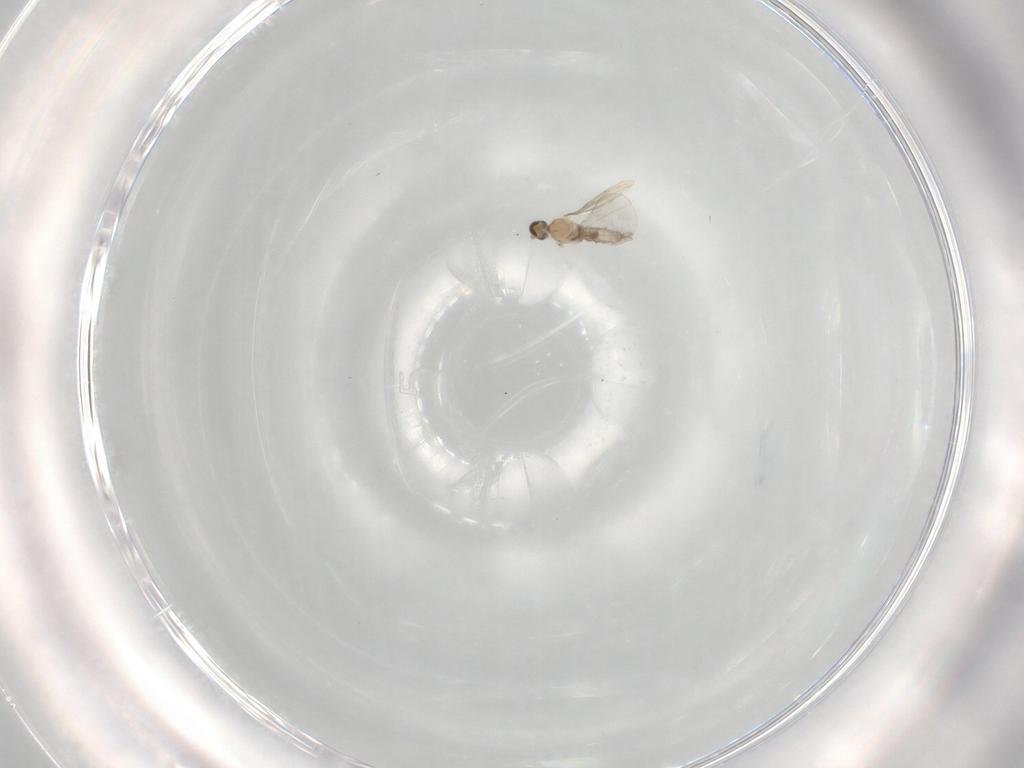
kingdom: Animalia
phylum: Arthropoda
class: Insecta
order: Diptera
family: Cecidomyiidae
